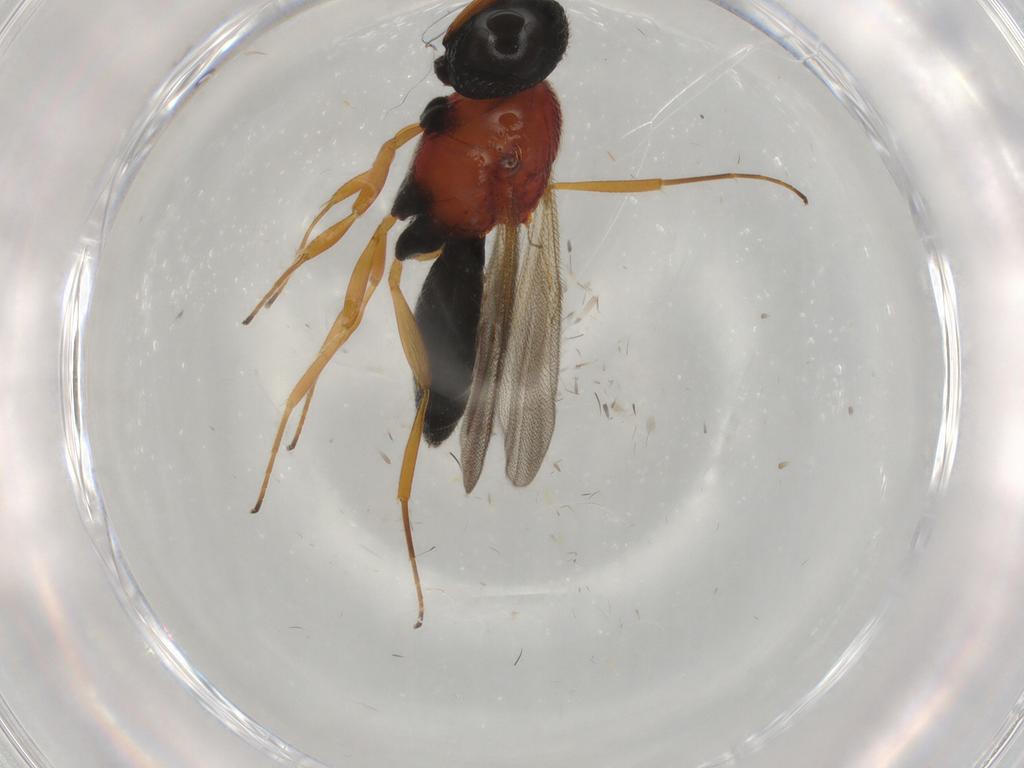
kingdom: Animalia
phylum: Arthropoda
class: Insecta
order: Hymenoptera
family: Scelionidae
